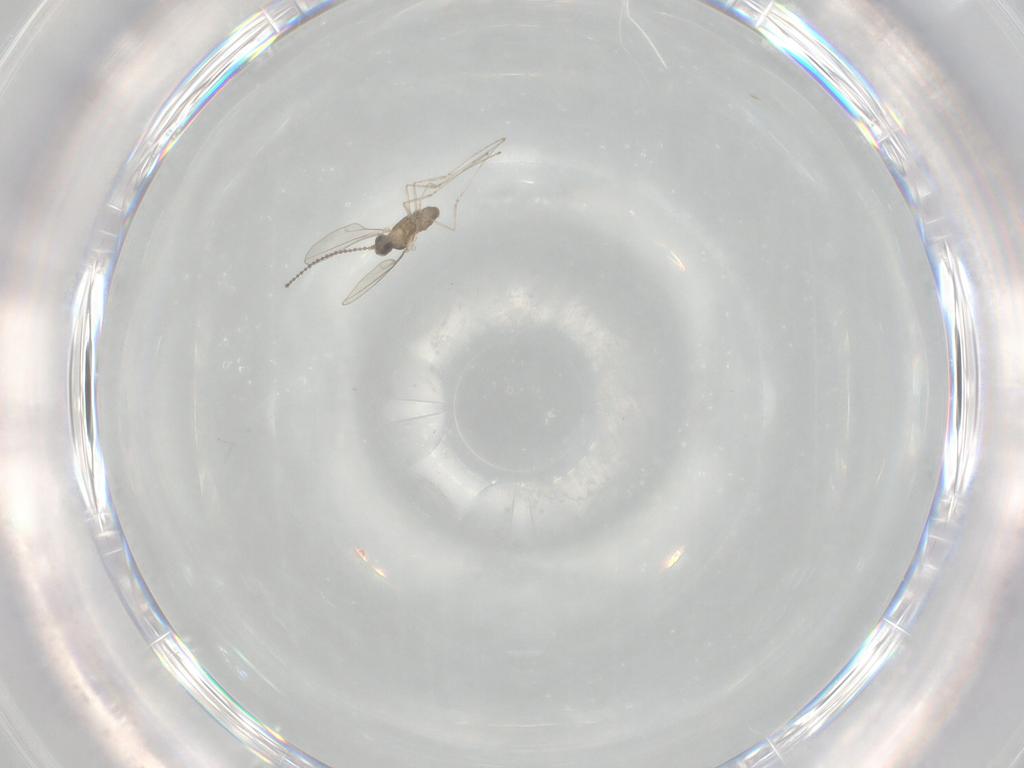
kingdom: Animalia
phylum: Arthropoda
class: Insecta
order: Diptera
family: Cecidomyiidae
